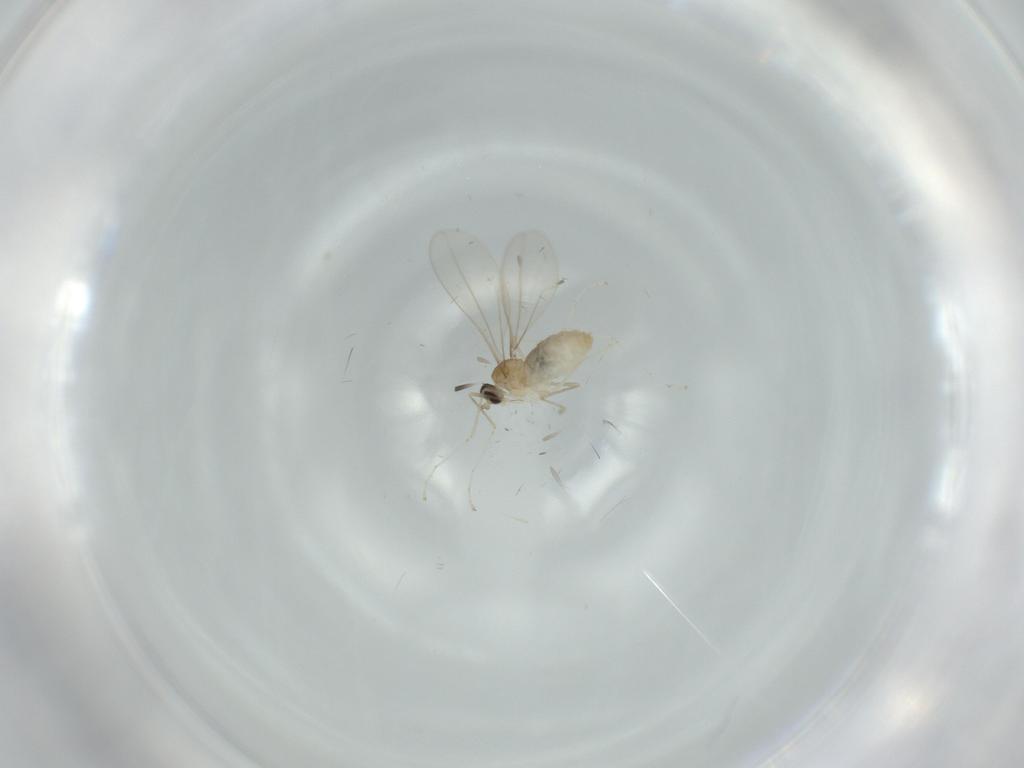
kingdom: Animalia
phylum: Arthropoda
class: Insecta
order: Diptera
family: Cecidomyiidae
